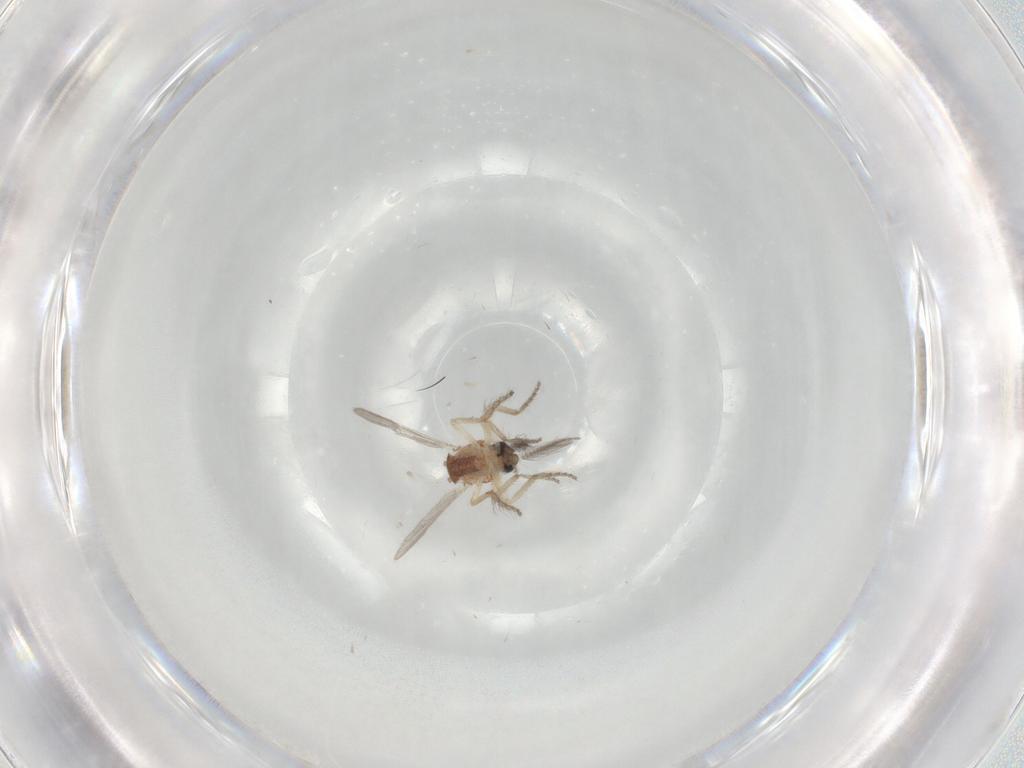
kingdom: Animalia
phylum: Arthropoda
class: Insecta
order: Diptera
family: Ceratopogonidae
